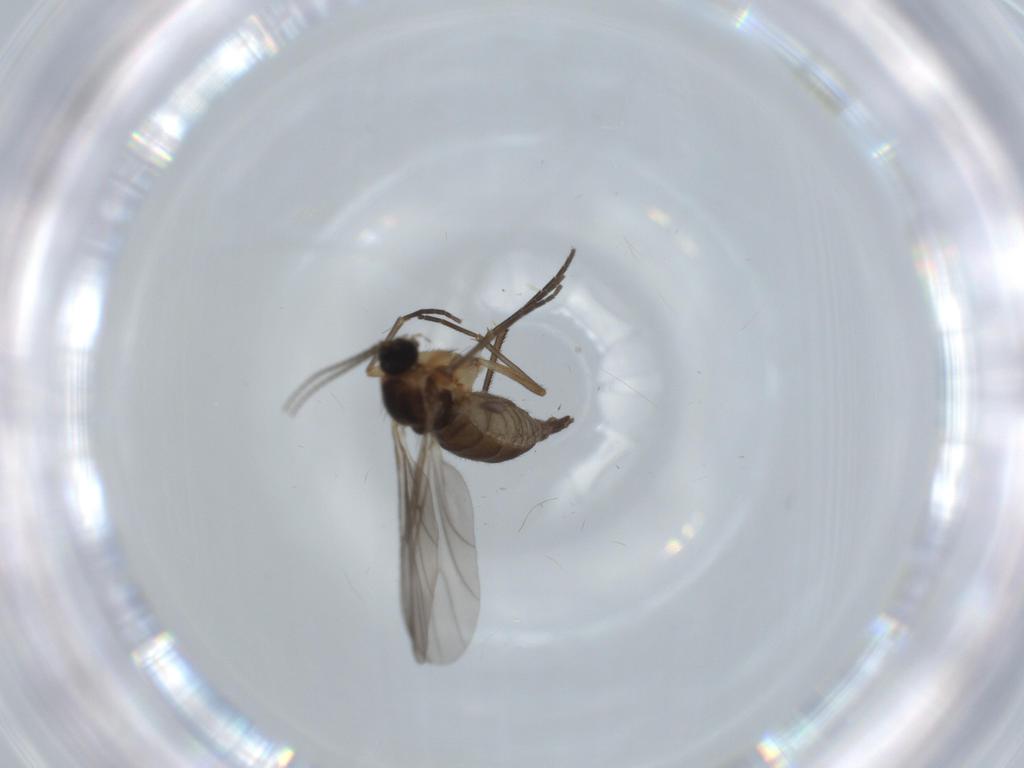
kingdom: Animalia
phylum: Arthropoda
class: Insecta
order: Diptera
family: Sciaridae
